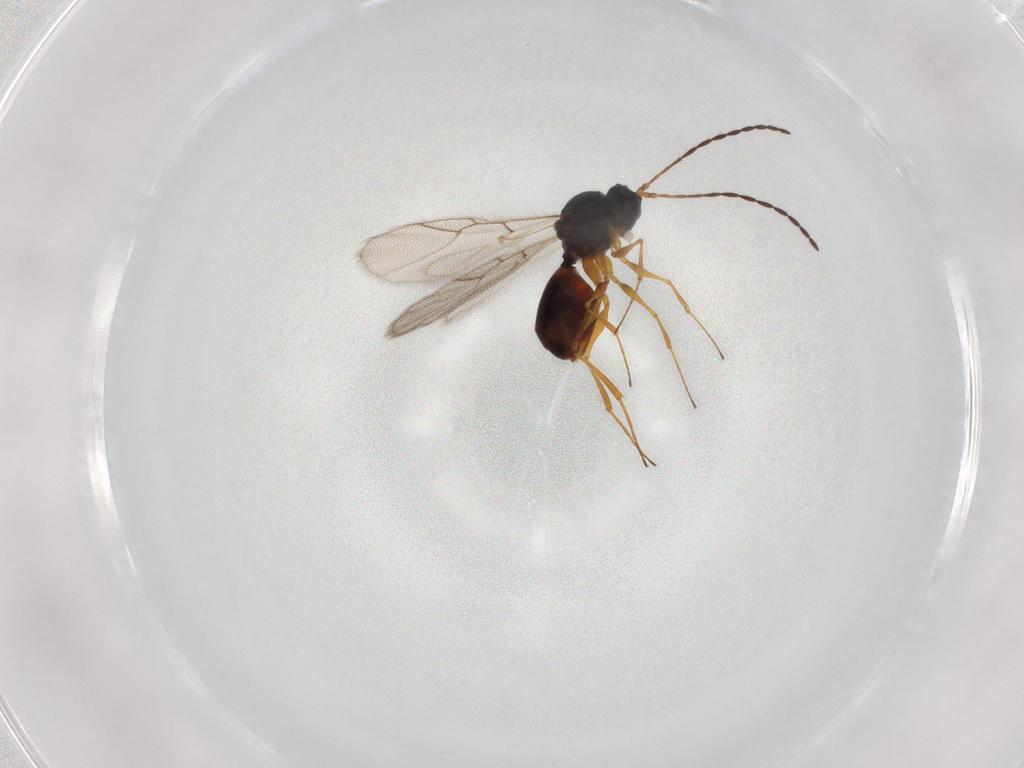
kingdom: Animalia
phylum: Arthropoda
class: Insecta
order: Hymenoptera
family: Figitidae
